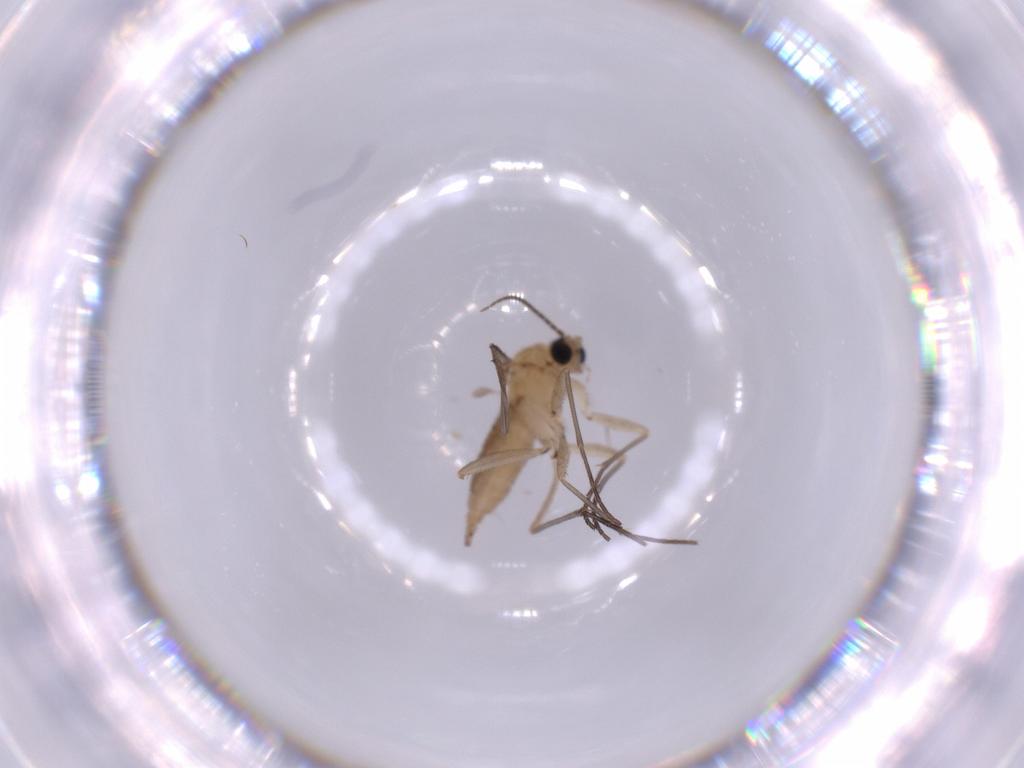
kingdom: Animalia
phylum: Arthropoda
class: Insecta
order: Diptera
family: Sciaridae
